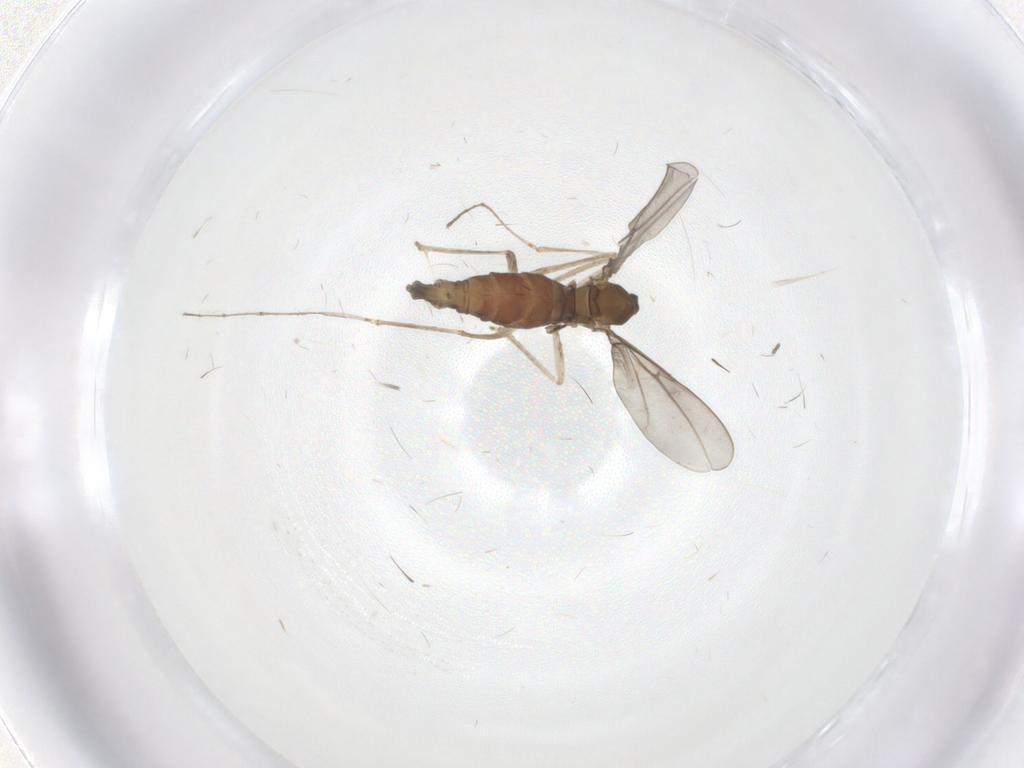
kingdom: Animalia
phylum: Arthropoda
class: Insecta
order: Diptera
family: Cecidomyiidae
